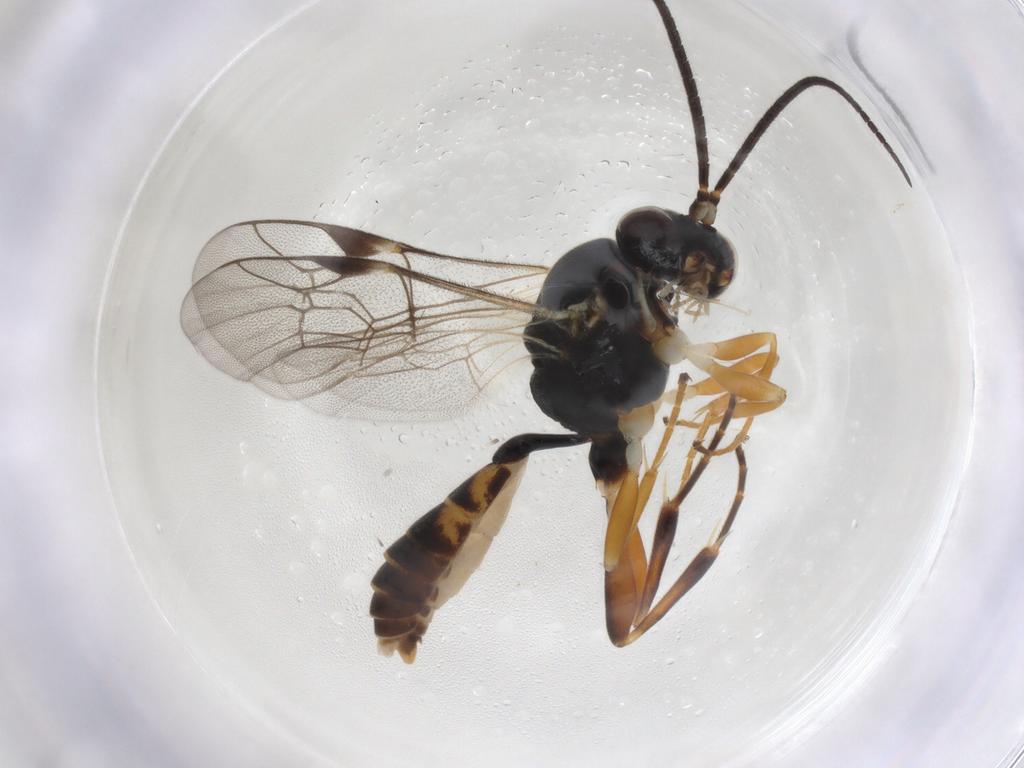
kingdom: Animalia
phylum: Arthropoda
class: Insecta
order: Hymenoptera
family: Ichneumonidae
